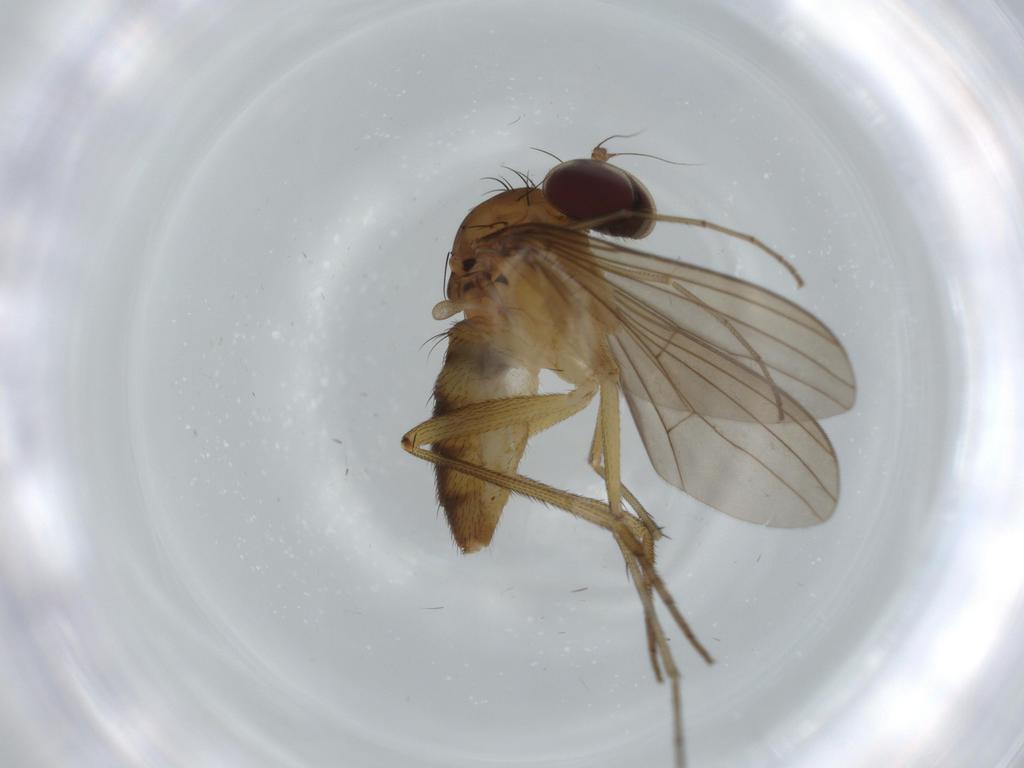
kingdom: Animalia
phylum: Arthropoda
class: Insecta
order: Diptera
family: Dolichopodidae
